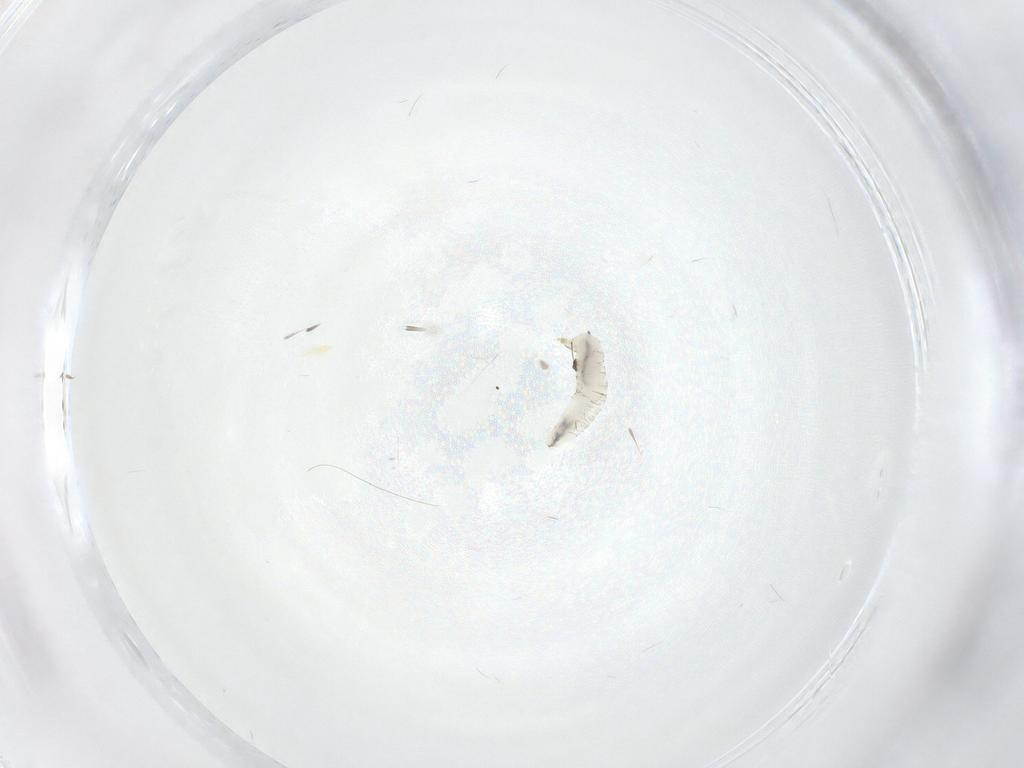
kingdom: Animalia
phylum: Arthropoda
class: Insecta
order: Diptera
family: Cecidomyiidae
